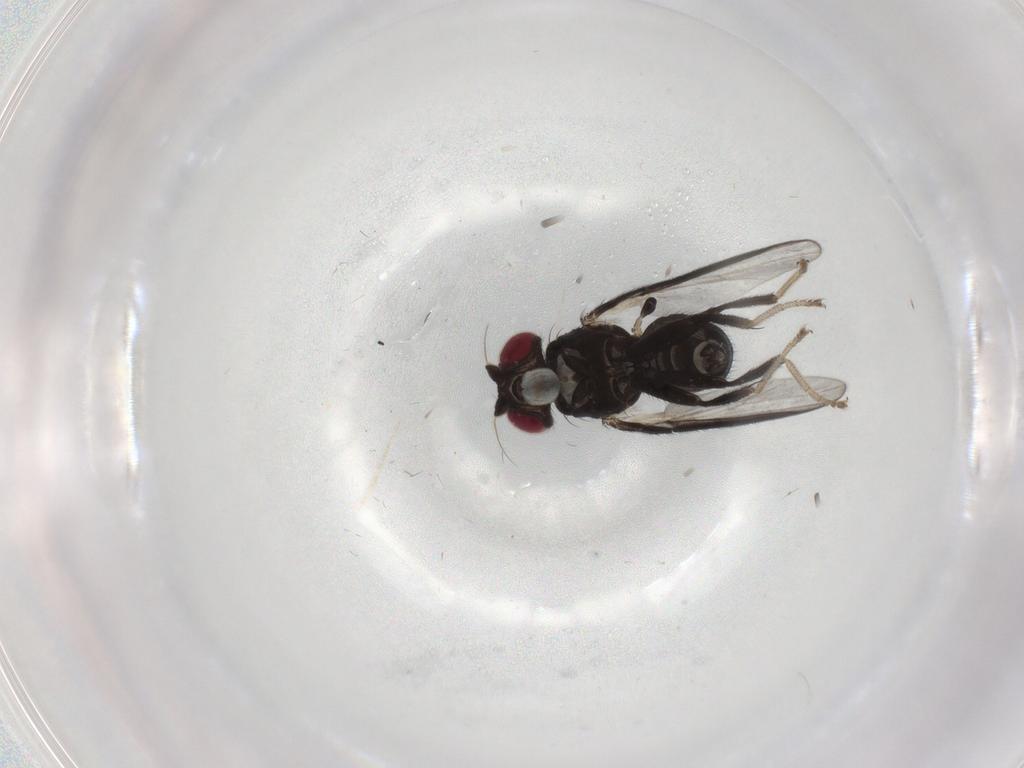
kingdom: Animalia
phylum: Arthropoda
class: Insecta
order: Diptera
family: Agromyzidae
